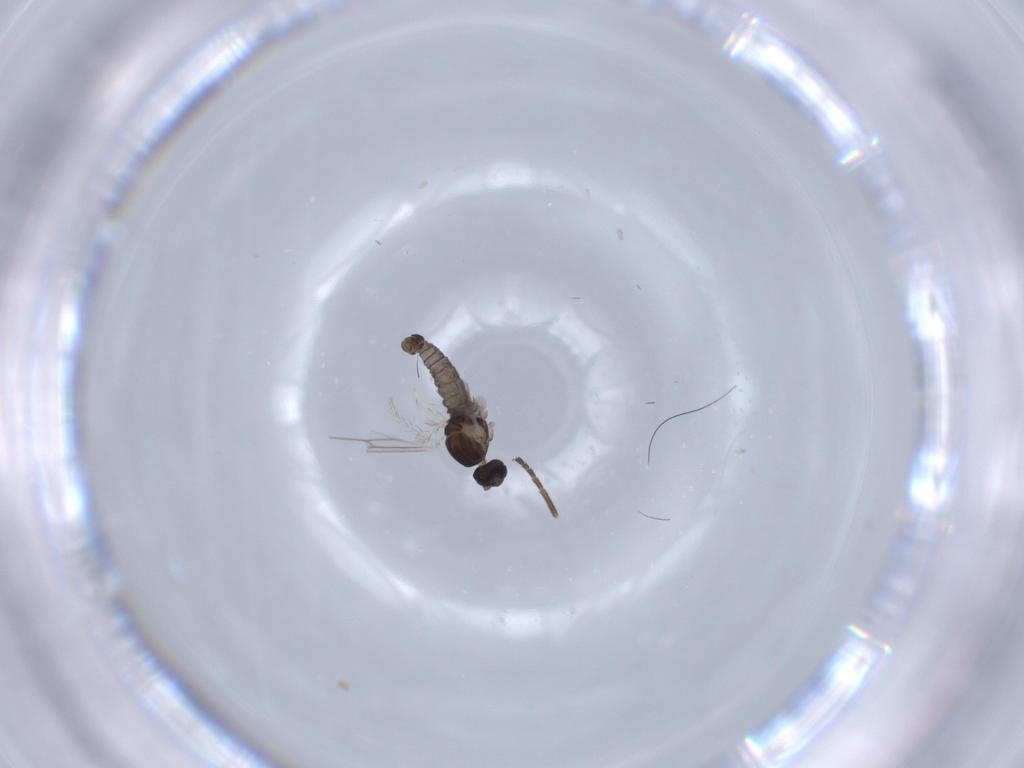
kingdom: Animalia
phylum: Arthropoda
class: Insecta
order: Diptera
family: Cecidomyiidae
